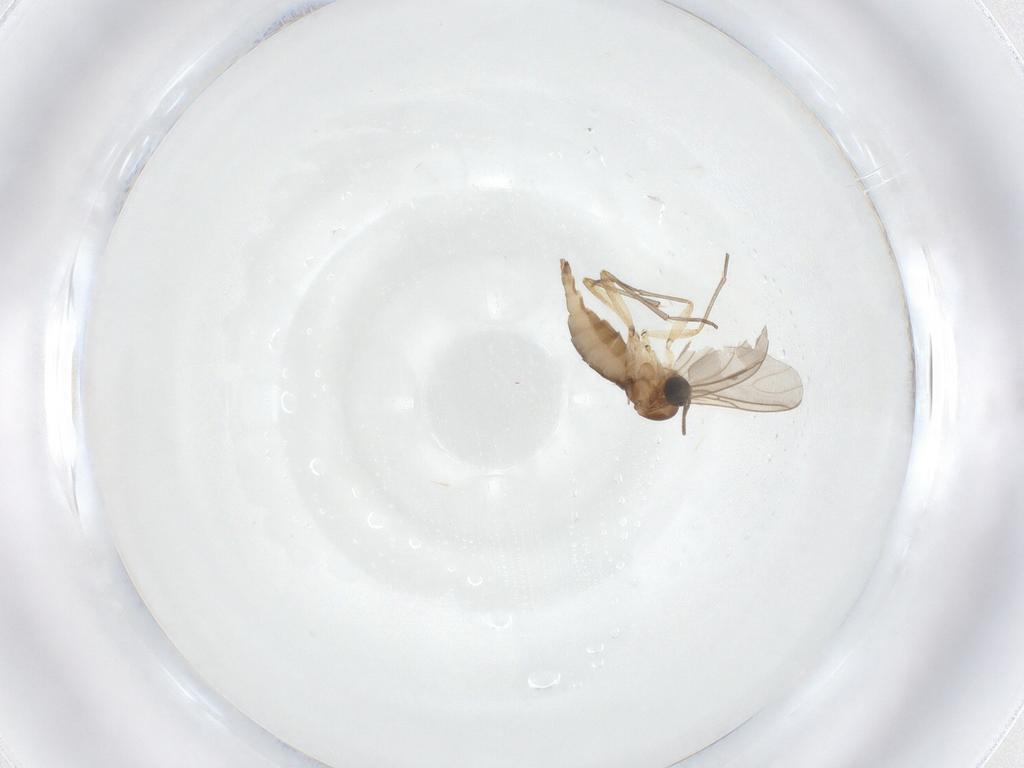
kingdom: Animalia
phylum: Arthropoda
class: Insecta
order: Diptera
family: Sciaridae
